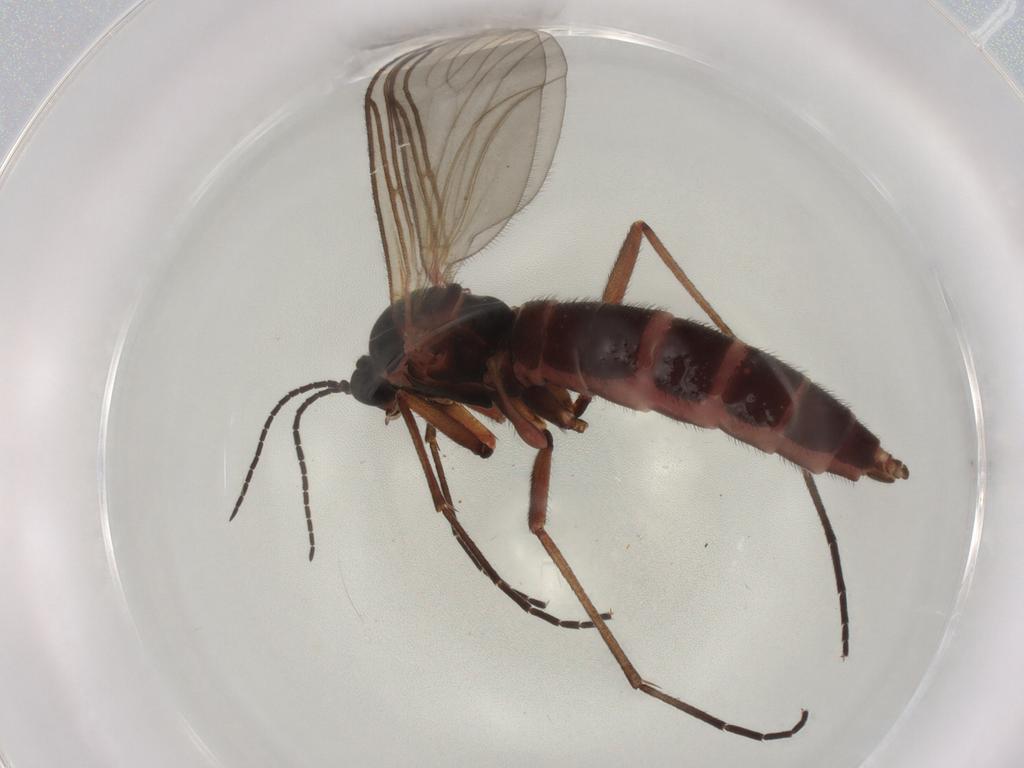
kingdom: Animalia
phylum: Arthropoda
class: Insecta
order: Diptera
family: Sciaridae
